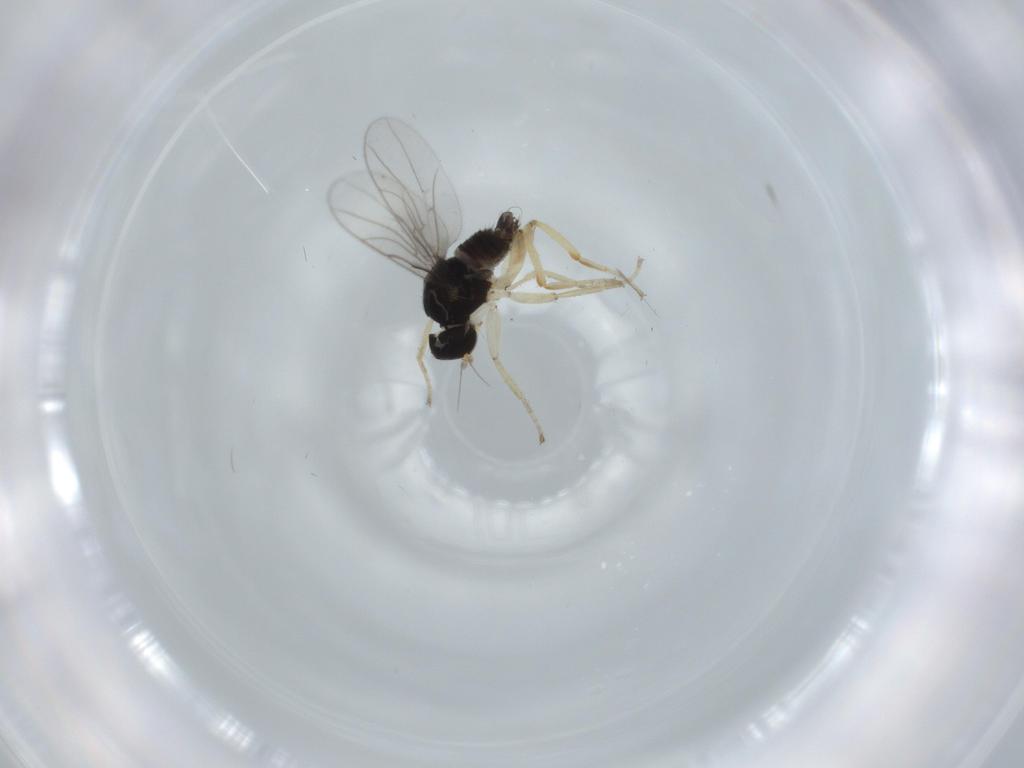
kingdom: Animalia
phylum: Arthropoda
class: Insecta
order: Diptera
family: Hybotidae
